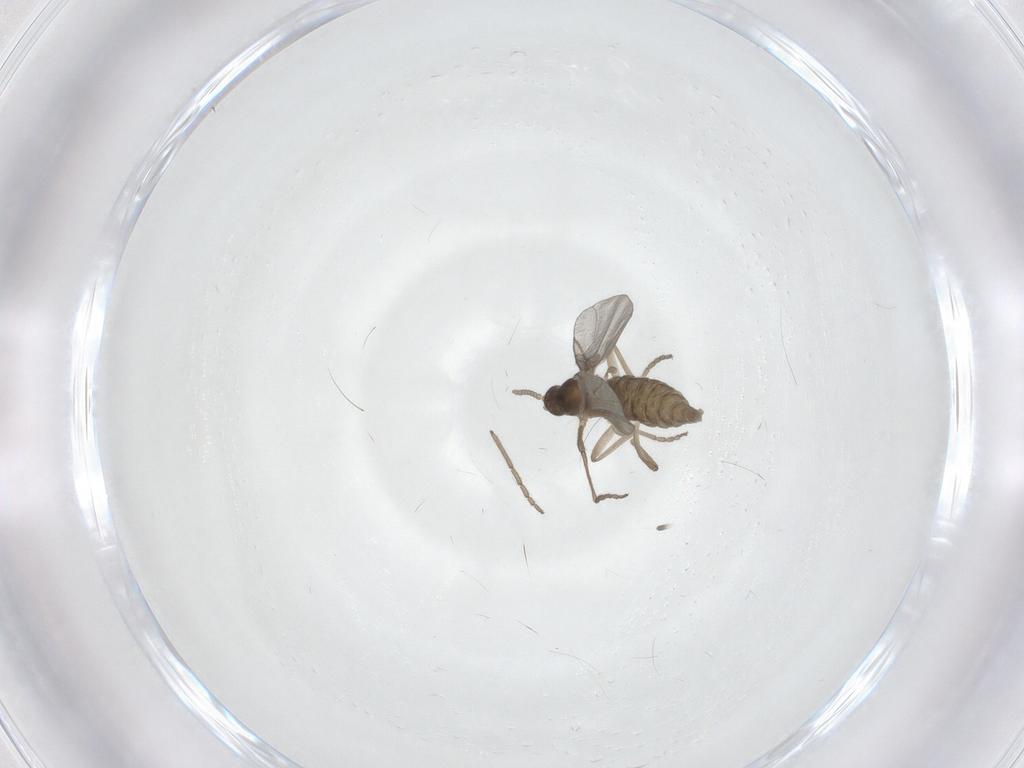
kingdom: Animalia
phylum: Arthropoda
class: Insecta
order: Diptera
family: Cecidomyiidae
